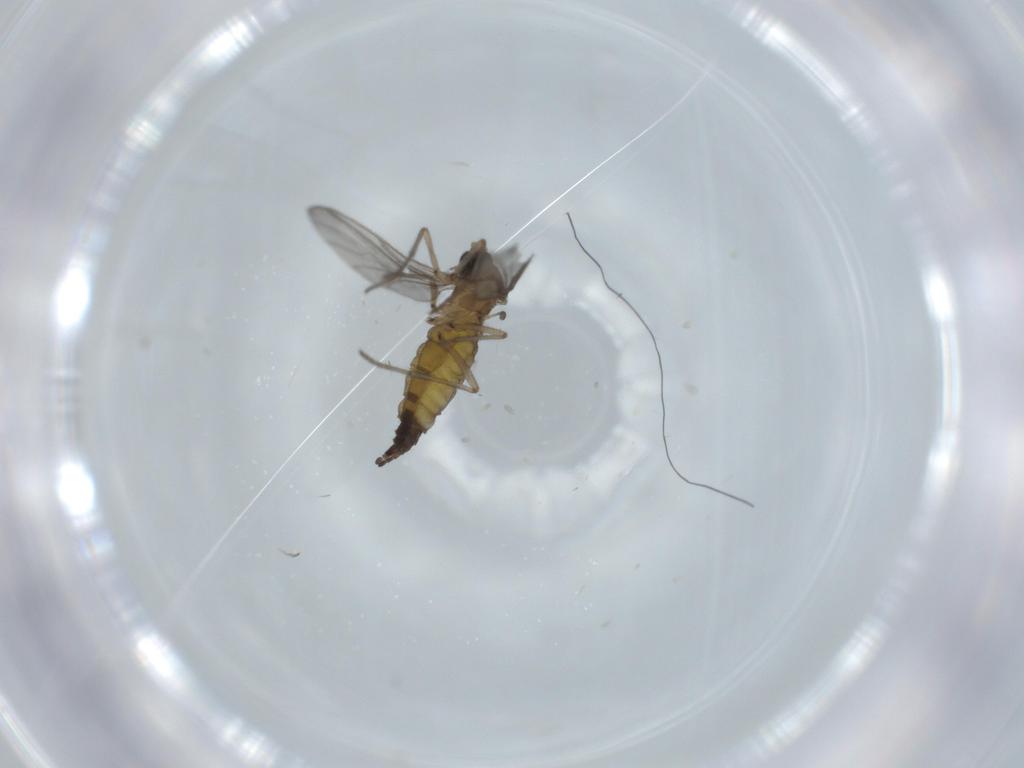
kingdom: Animalia
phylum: Arthropoda
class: Insecta
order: Diptera
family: Sciaridae
